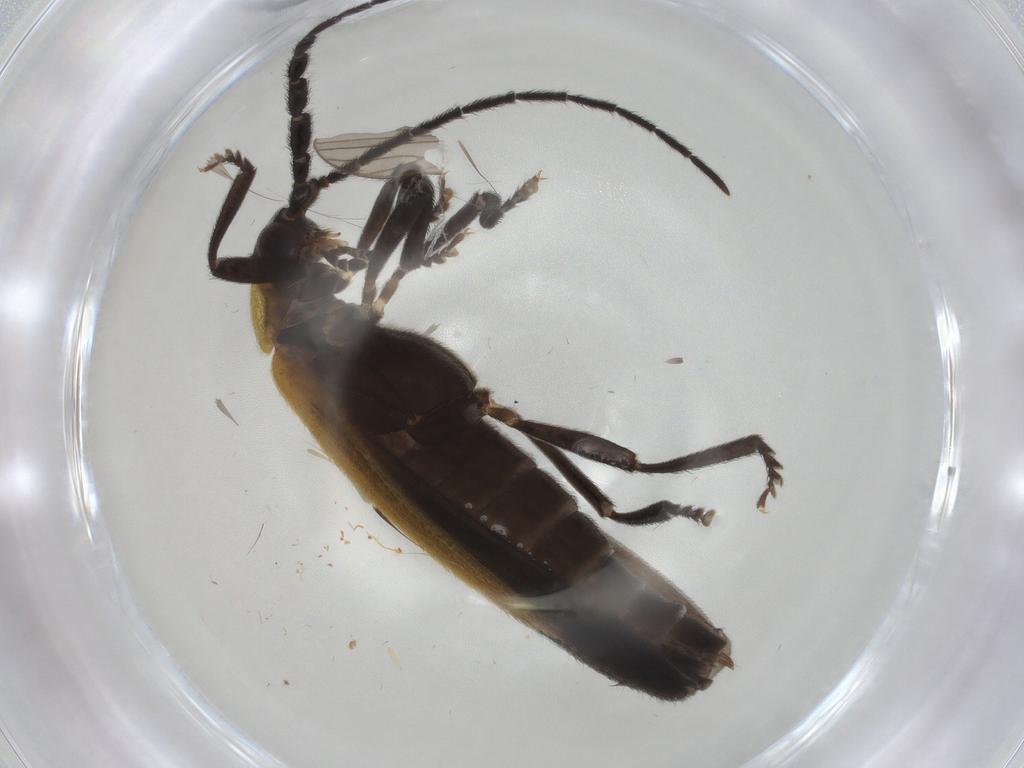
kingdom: Animalia
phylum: Arthropoda
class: Insecta
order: Coleoptera
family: Lycidae
